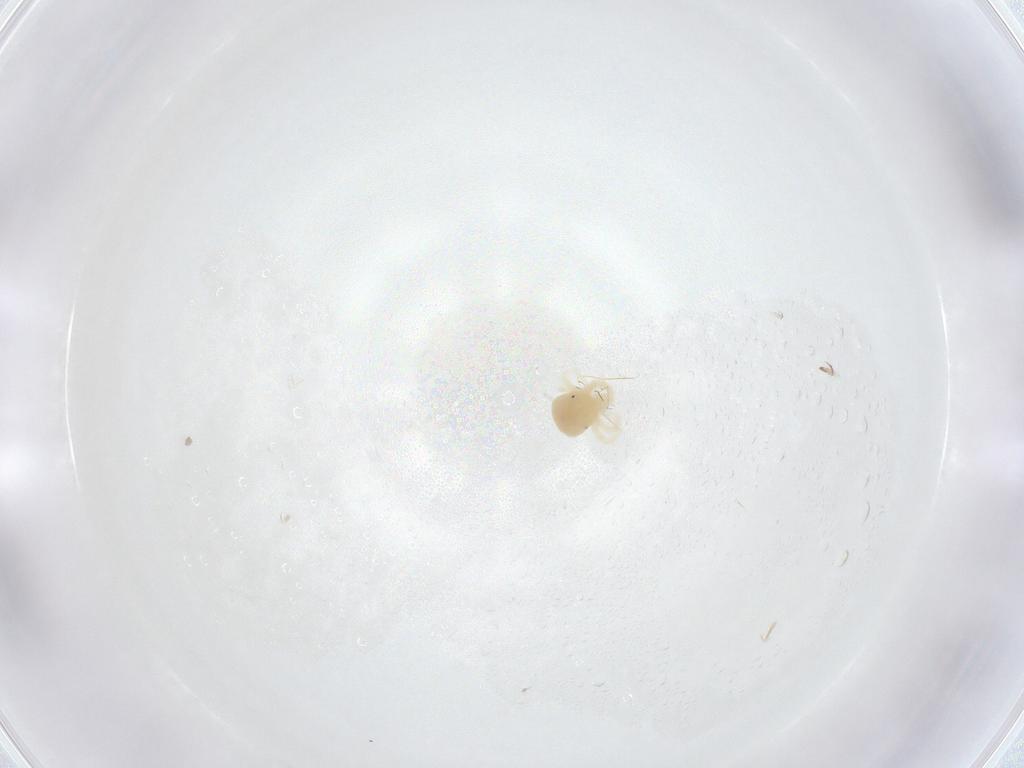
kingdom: Animalia
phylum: Arthropoda
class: Arachnida
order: Trombidiformes
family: Anystidae
